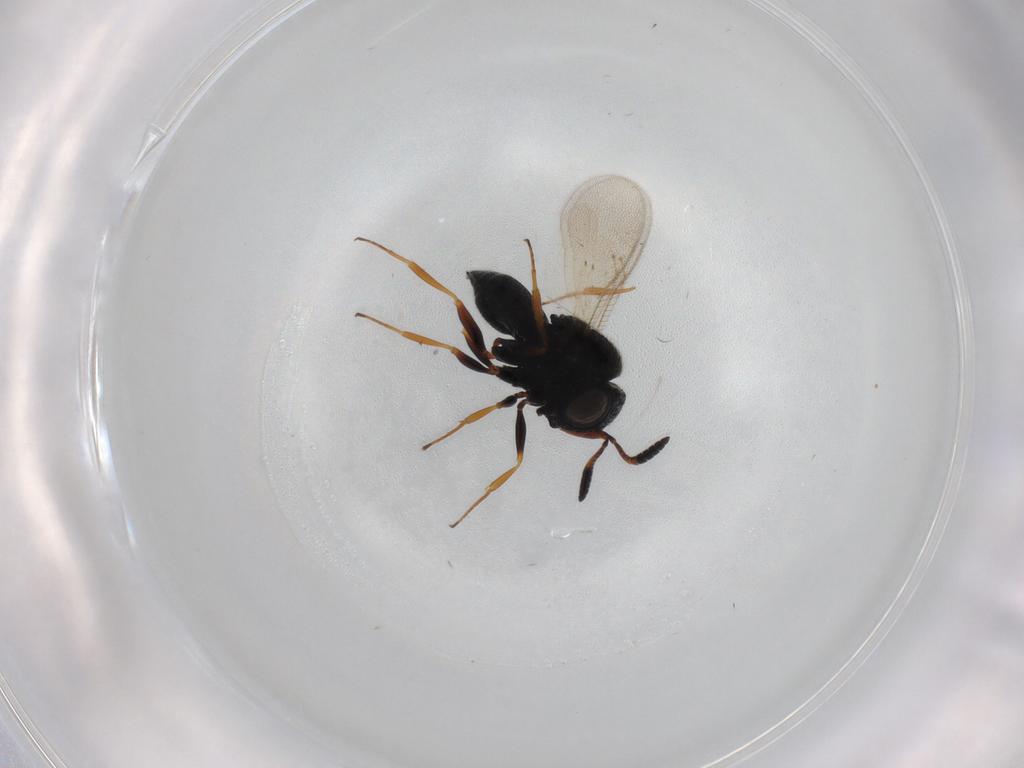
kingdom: Animalia
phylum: Arthropoda
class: Insecta
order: Hymenoptera
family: Scelionidae
